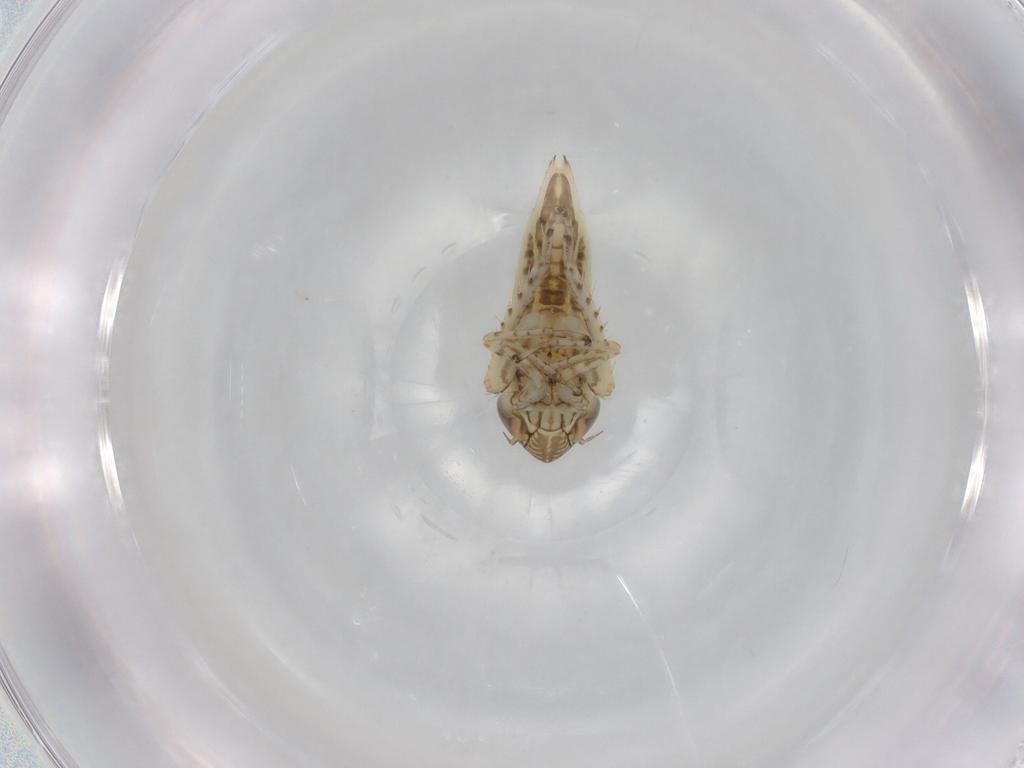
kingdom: Animalia
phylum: Arthropoda
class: Insecta
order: Hemiptera
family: Cicadellidae
